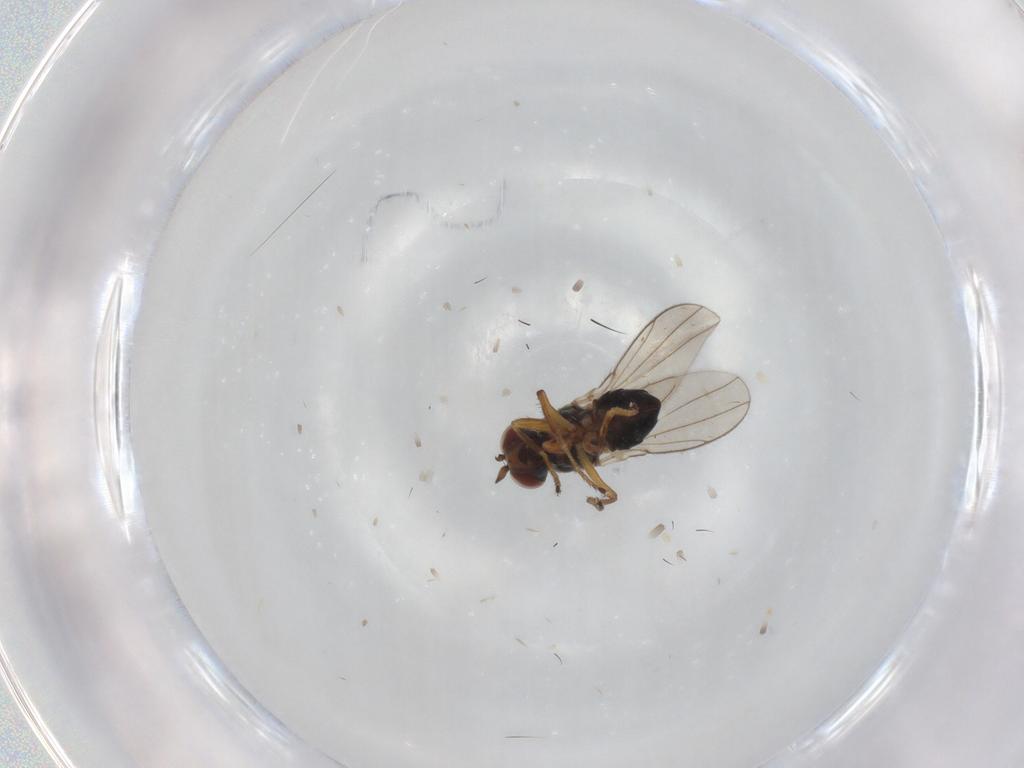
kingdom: Animalia
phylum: Arthropoda
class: Insecta
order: Diptera
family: Ephydridae
